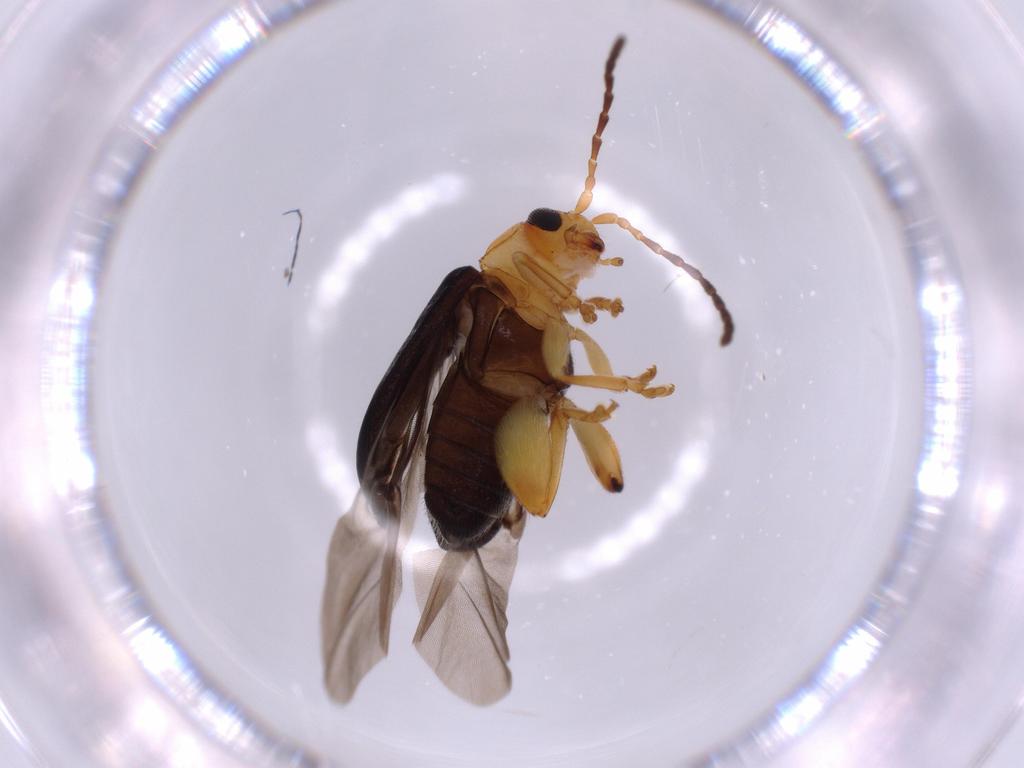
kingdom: Animalia
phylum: Arthropoda
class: Insecta
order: Coleoptera
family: Chrysomelidae
